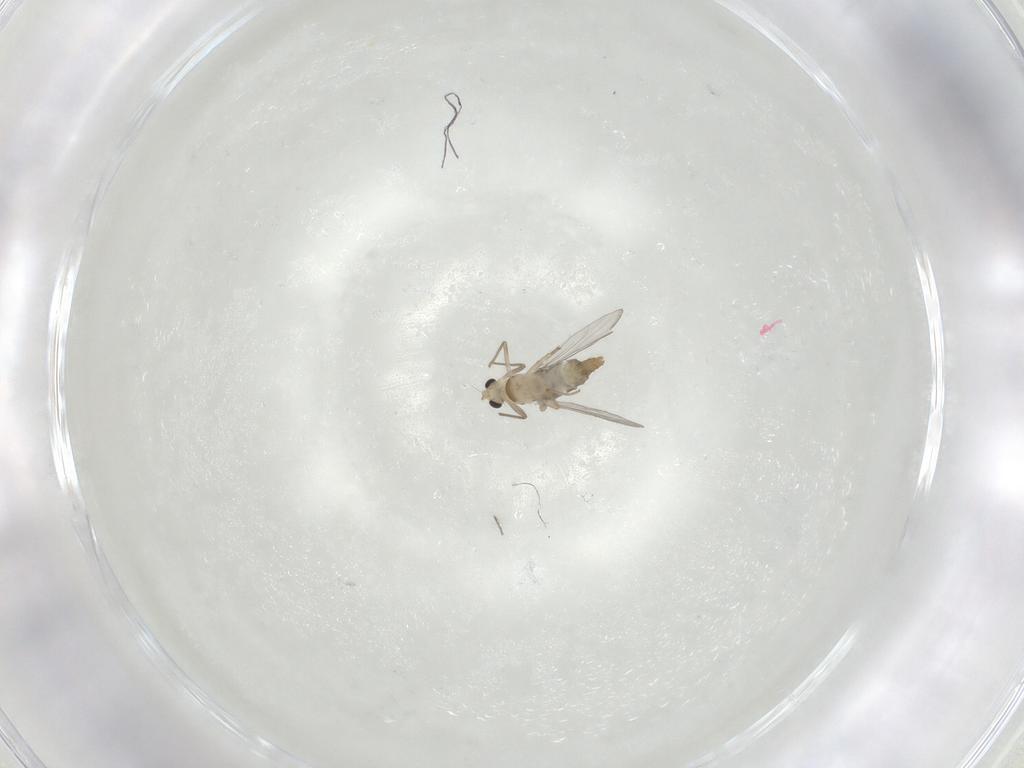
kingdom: Animalia
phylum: Arthropoda
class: Insecta
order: Diptera
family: Chironomidae
